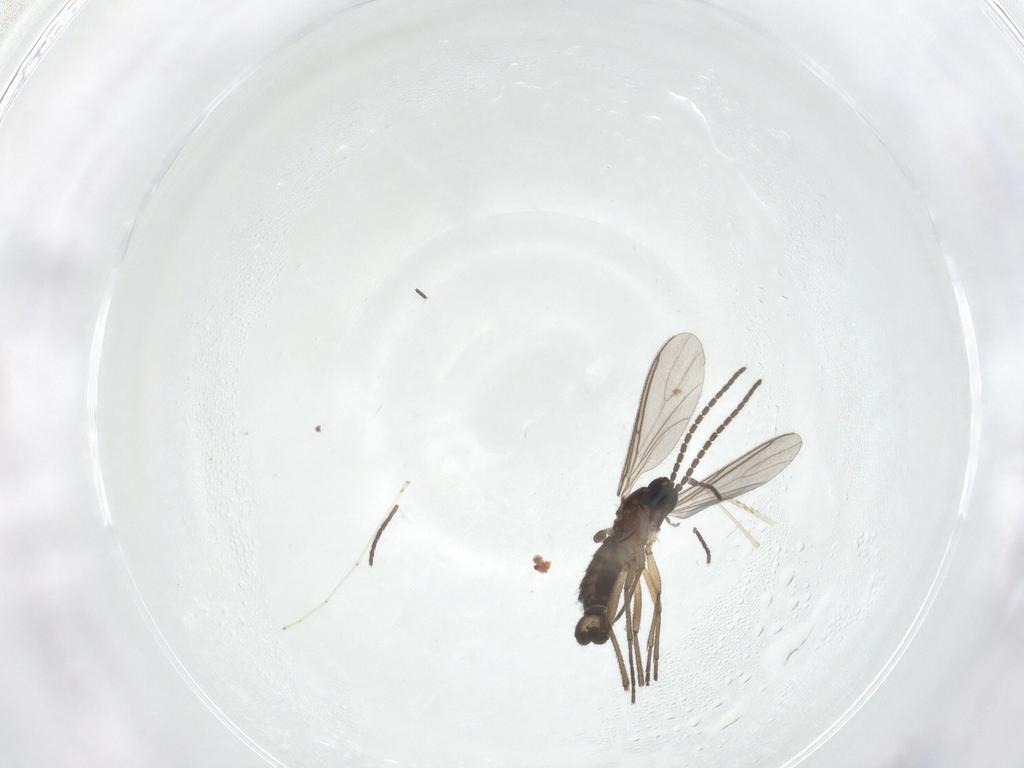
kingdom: Animalia
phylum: Arthropoda
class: Insecta
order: Diptera
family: Sciaridae
